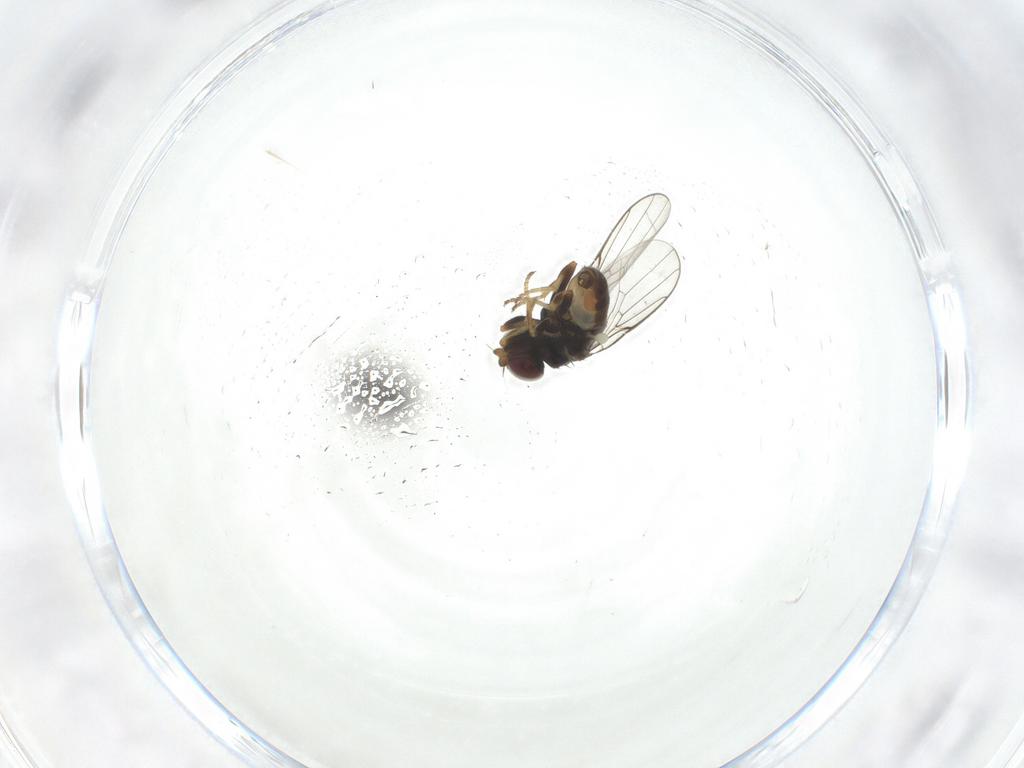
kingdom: Animalia
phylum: Arthropoda
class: Insecta
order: Diptera
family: Chloropidae
